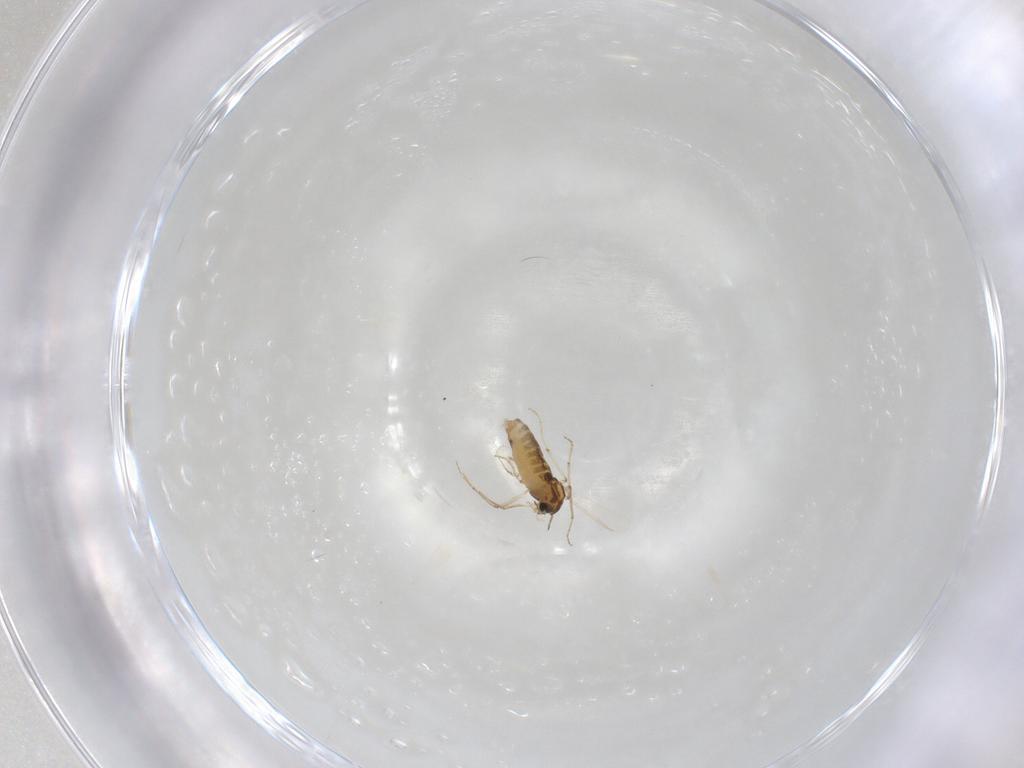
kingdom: Animalia
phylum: Arthropoda
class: Insecta
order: Diptera
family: Chironomidae
